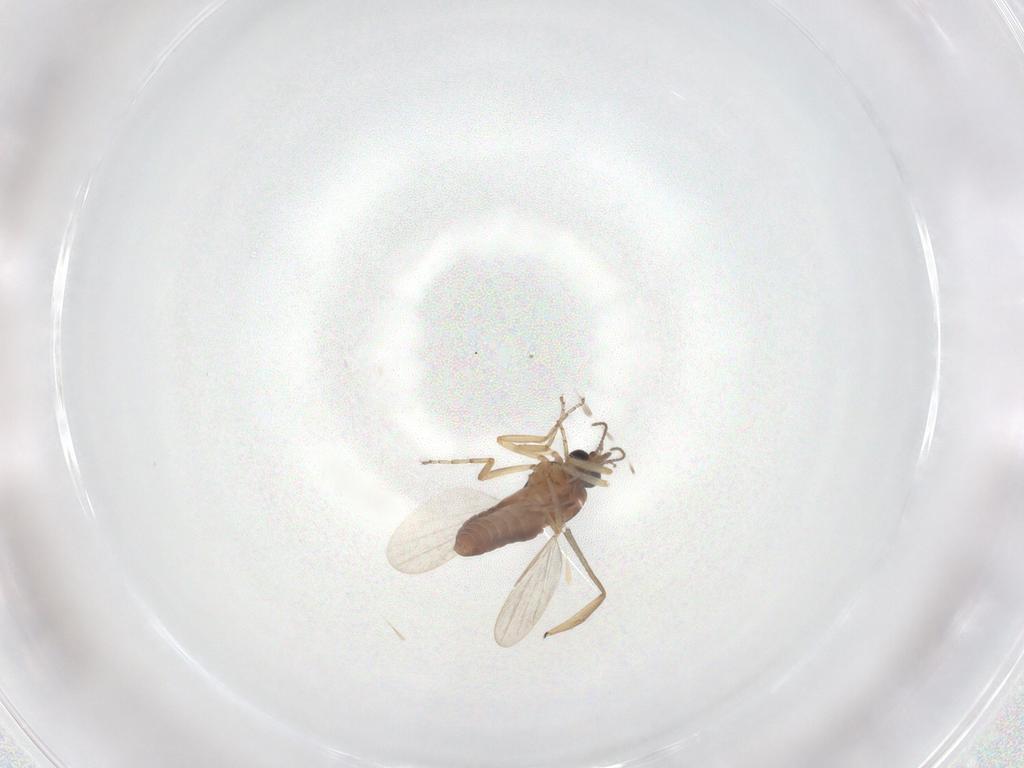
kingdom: Animalia
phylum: Arthropoda
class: Insecta
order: Diptera
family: Ceratopogonidae
